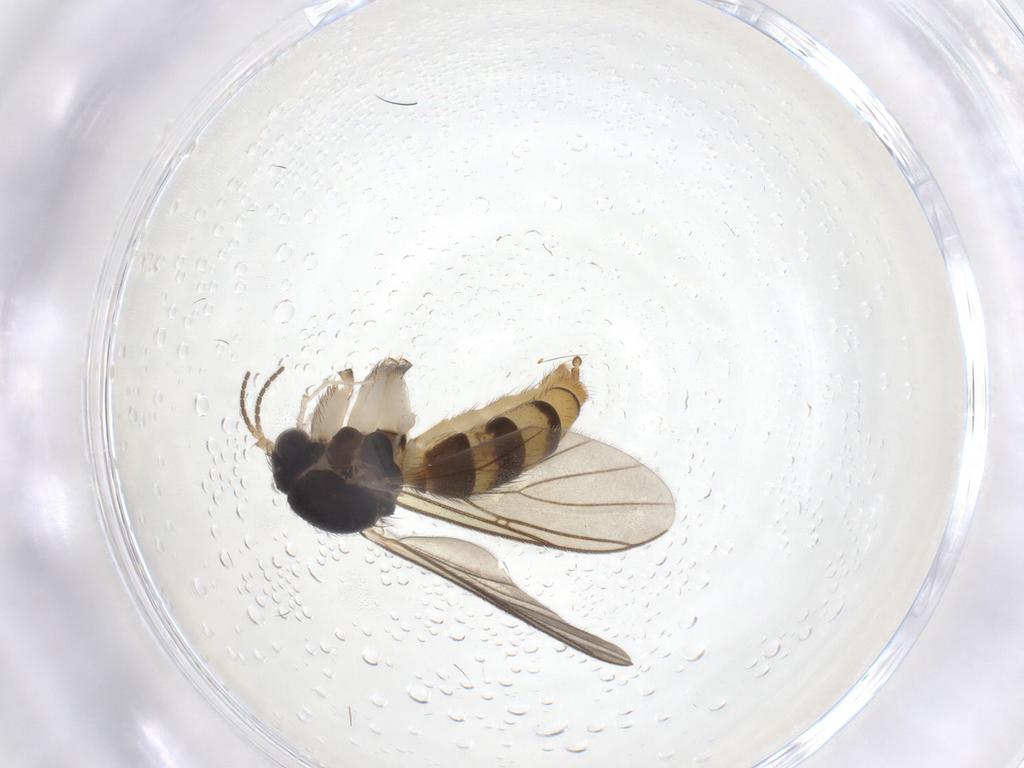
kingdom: Animalia
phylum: Arthropoda
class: Insecta
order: Diptera
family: Mycetophilidae
